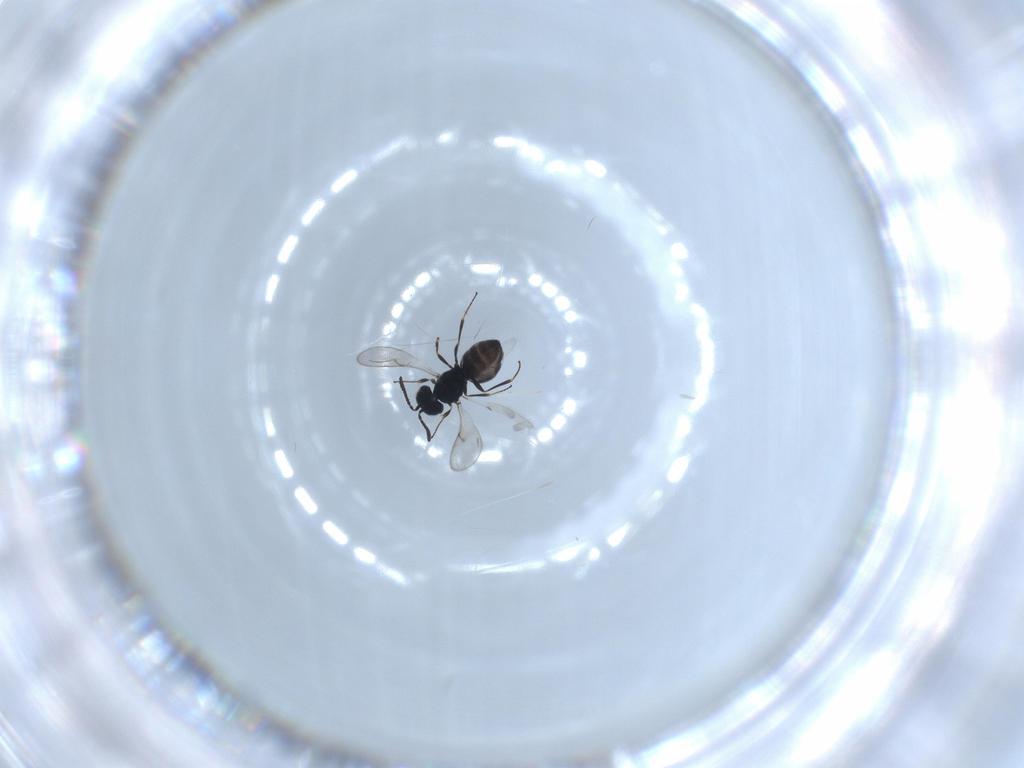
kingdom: Animalia
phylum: Arthropoda
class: Insecta
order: Hymenoptera
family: Scelionidae
